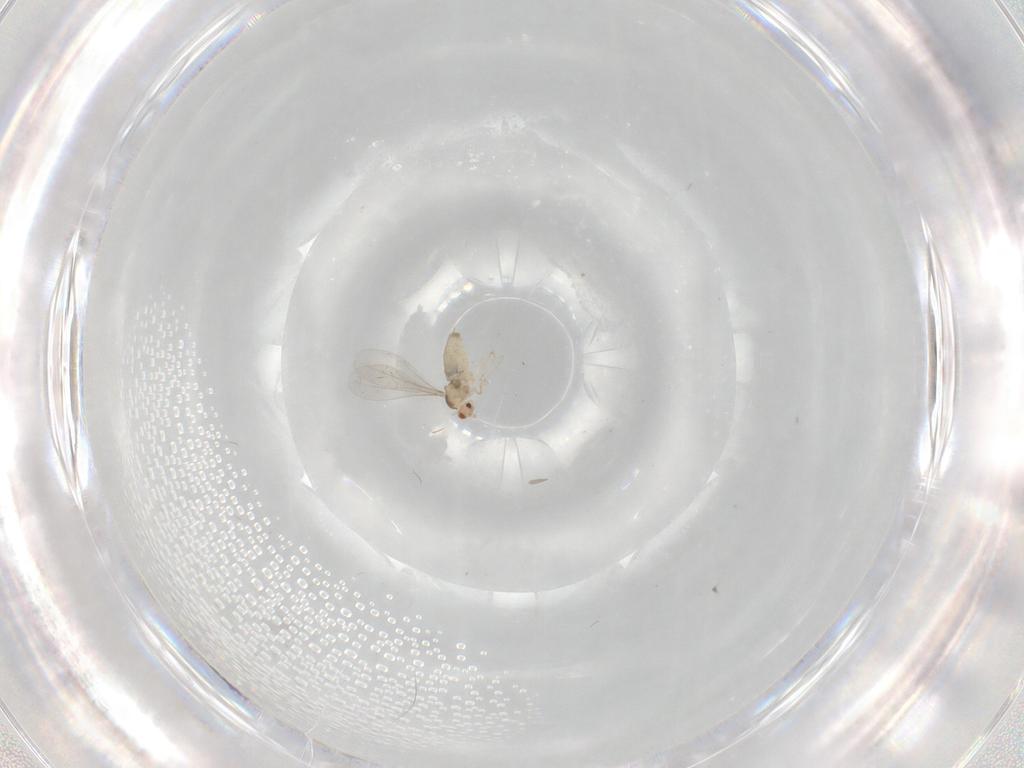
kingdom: Animalia
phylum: Arthropoda
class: Insecta
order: Diptera
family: Cecidomyiidae
